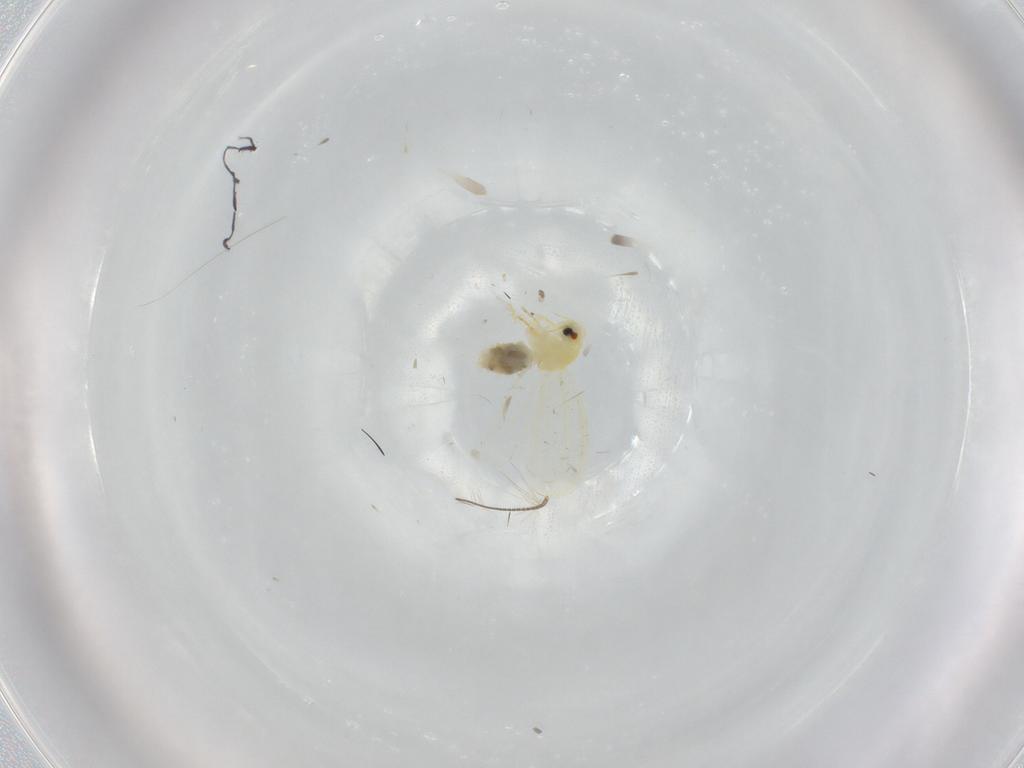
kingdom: Animalia
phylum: Arthropoda
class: Insecta
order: Hemiptera
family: Aleyrodidae
